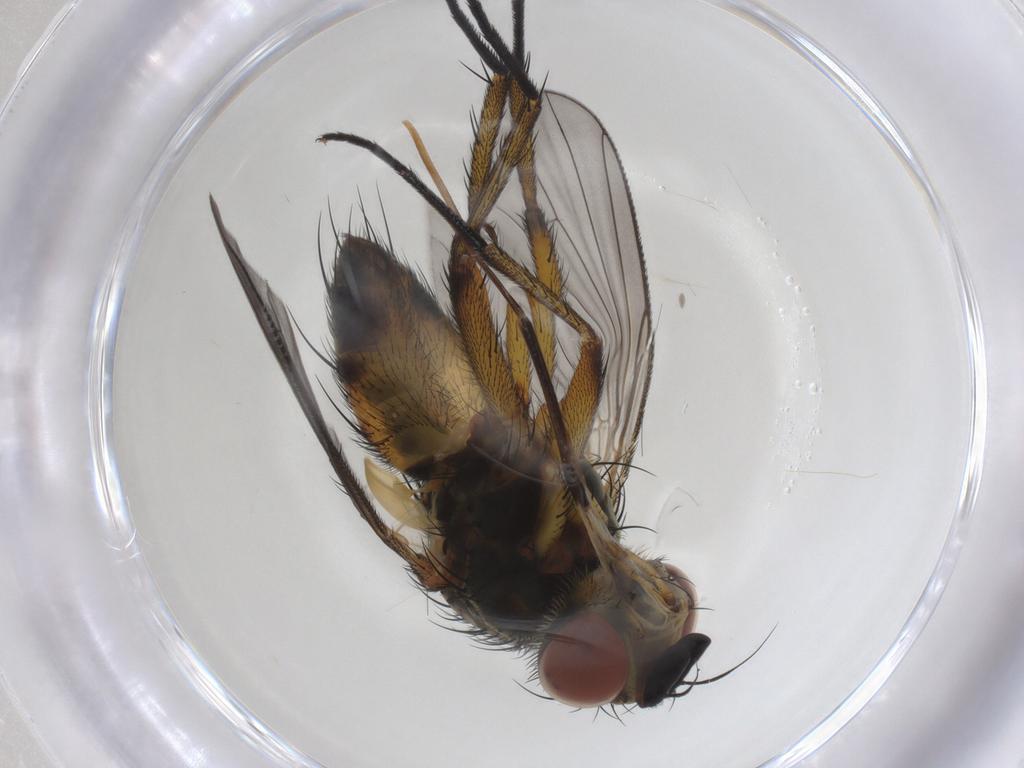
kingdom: Animalia
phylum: Arthropoda
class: Insecta
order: Diptera
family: Tachinidae
